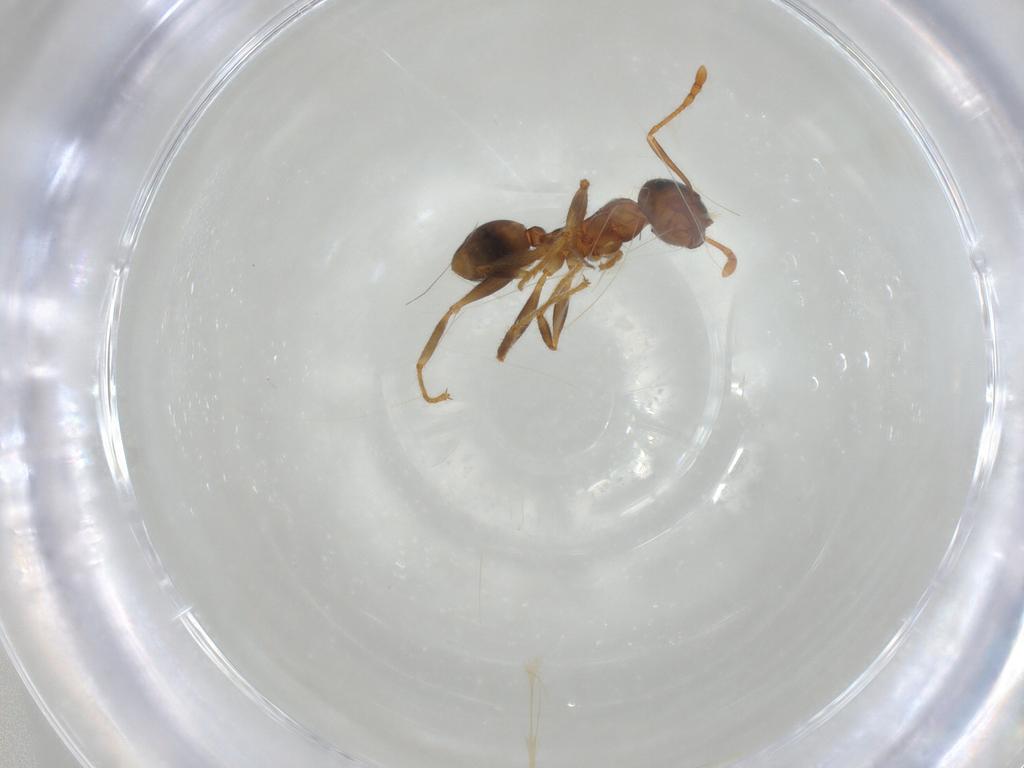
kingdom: Animalia
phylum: Arthropoda
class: Insecta
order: Diptera
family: Chironomidae
